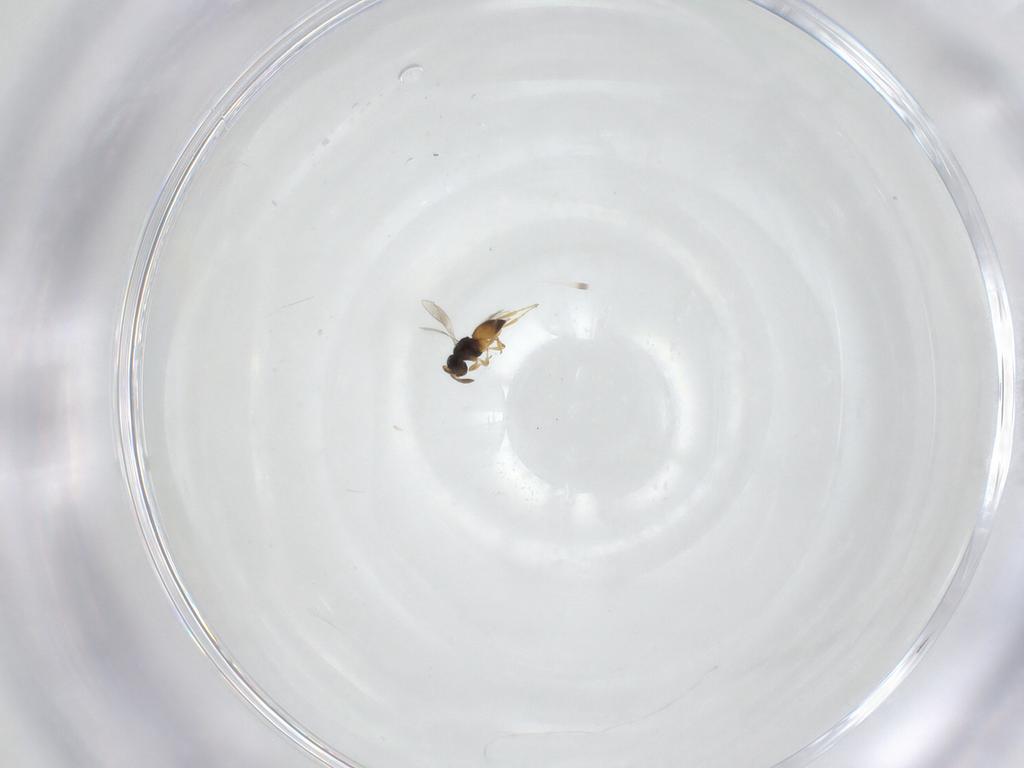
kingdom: Animalia
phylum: Arthropoda
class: Insecta
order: Hymenoptera
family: Scelionidae
